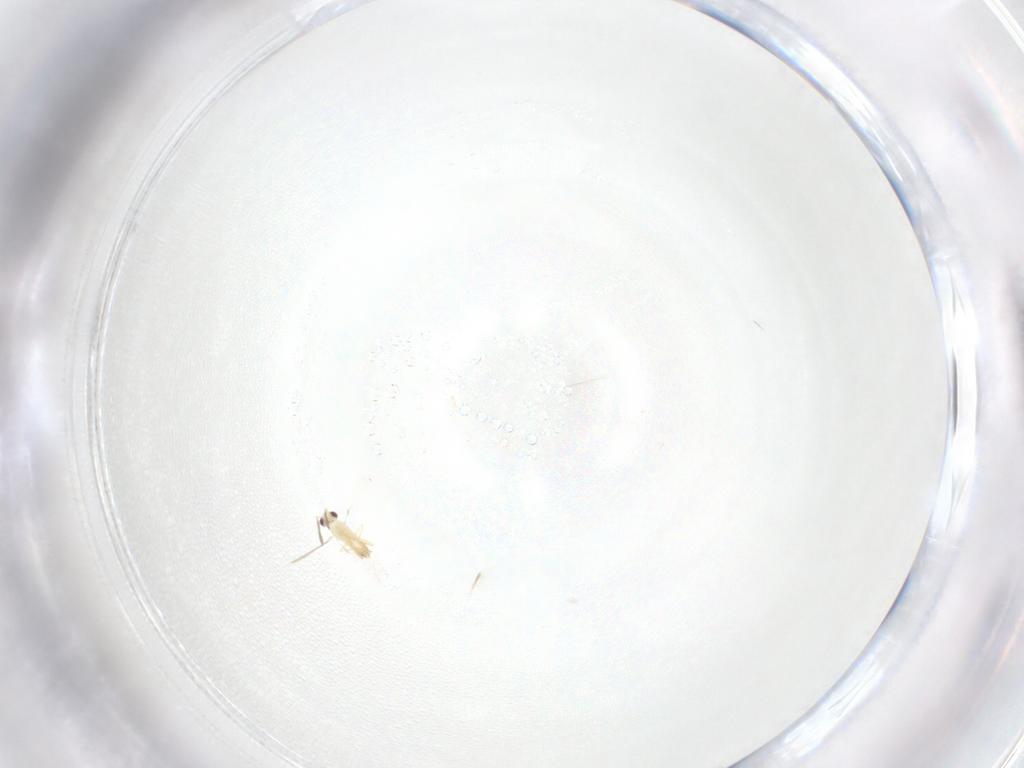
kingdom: Animalia
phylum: Arthropoda
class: Insecta
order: Hymenoptera
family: Mymaridae
